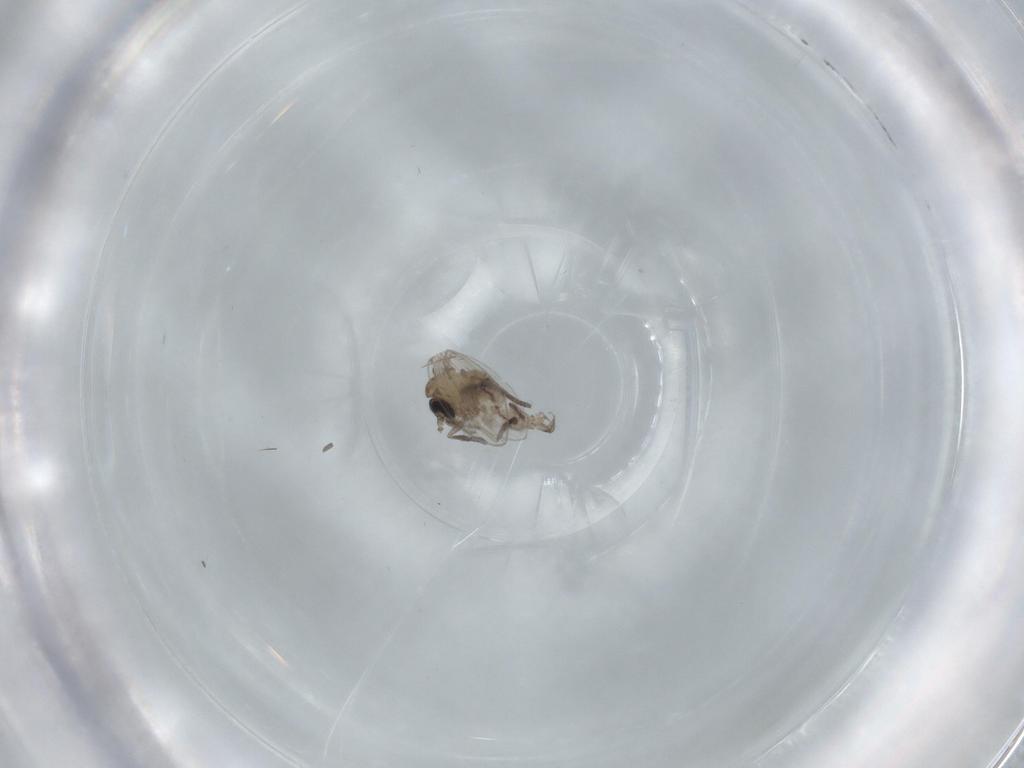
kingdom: Animalia
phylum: Arthropoda
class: Insecta
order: Diptera
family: Psychodidae
